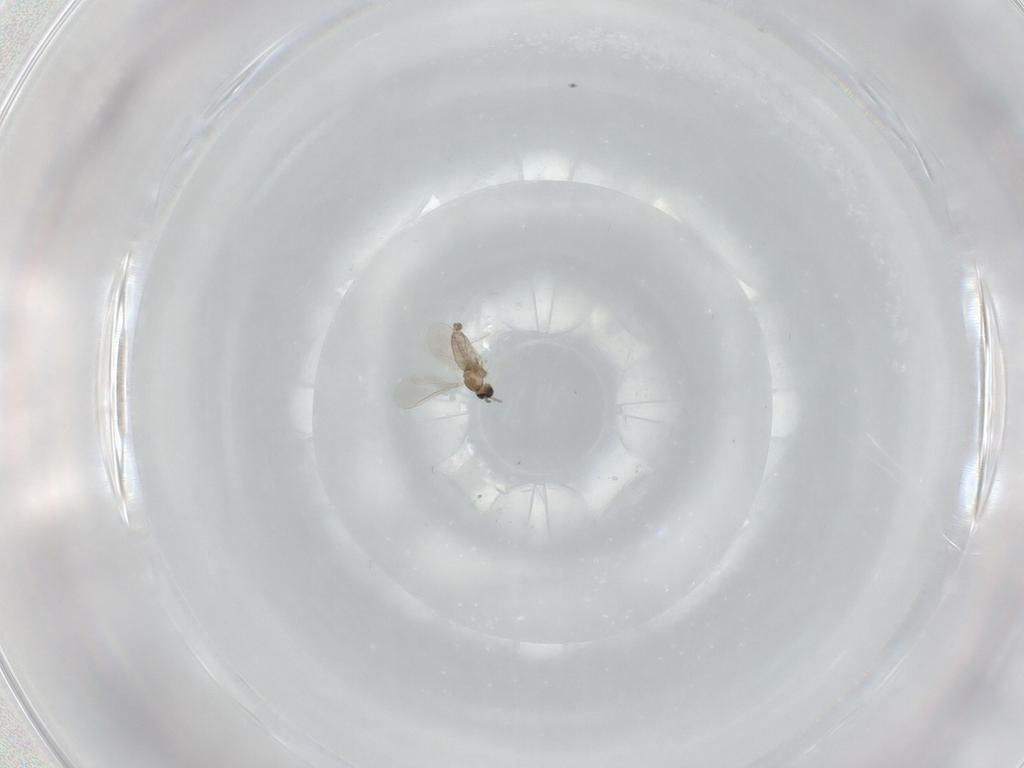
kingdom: Animalia
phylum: Arthropoda
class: Insecta
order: Diptera
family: Cecidomyiidae
